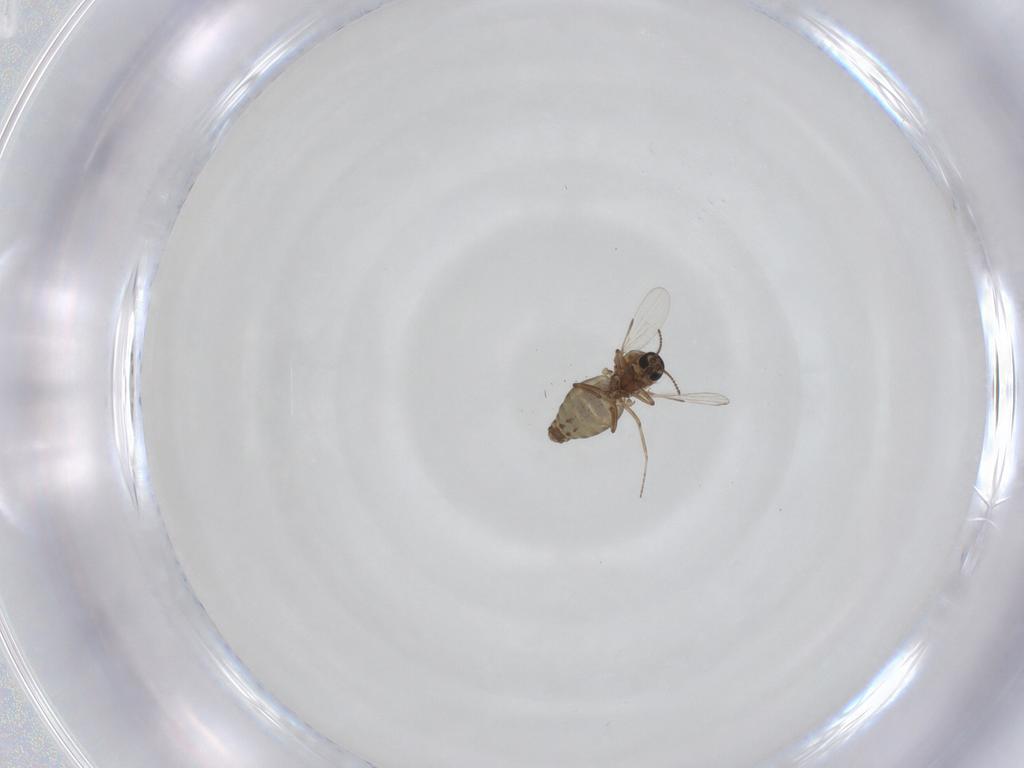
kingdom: Animalia
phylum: Arthropoda
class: Insecta
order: Diptera
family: Ceratopogonidae
